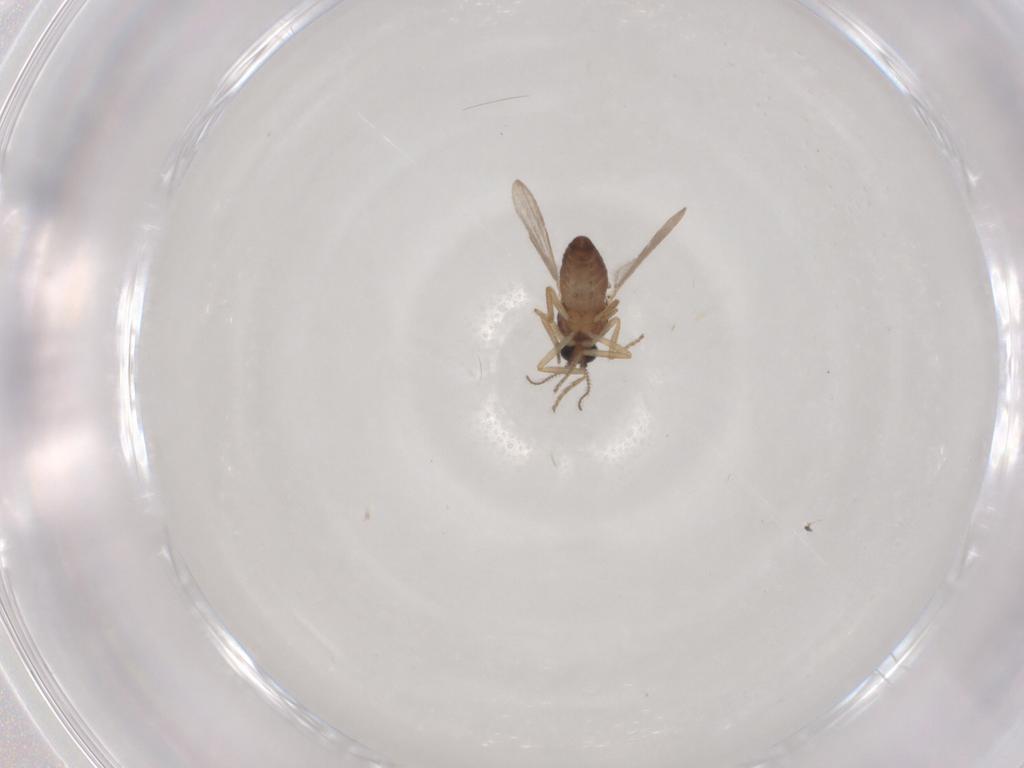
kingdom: Animalia
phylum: Arthropoda
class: Insecta
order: Diptera
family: Ceratopogonidae
